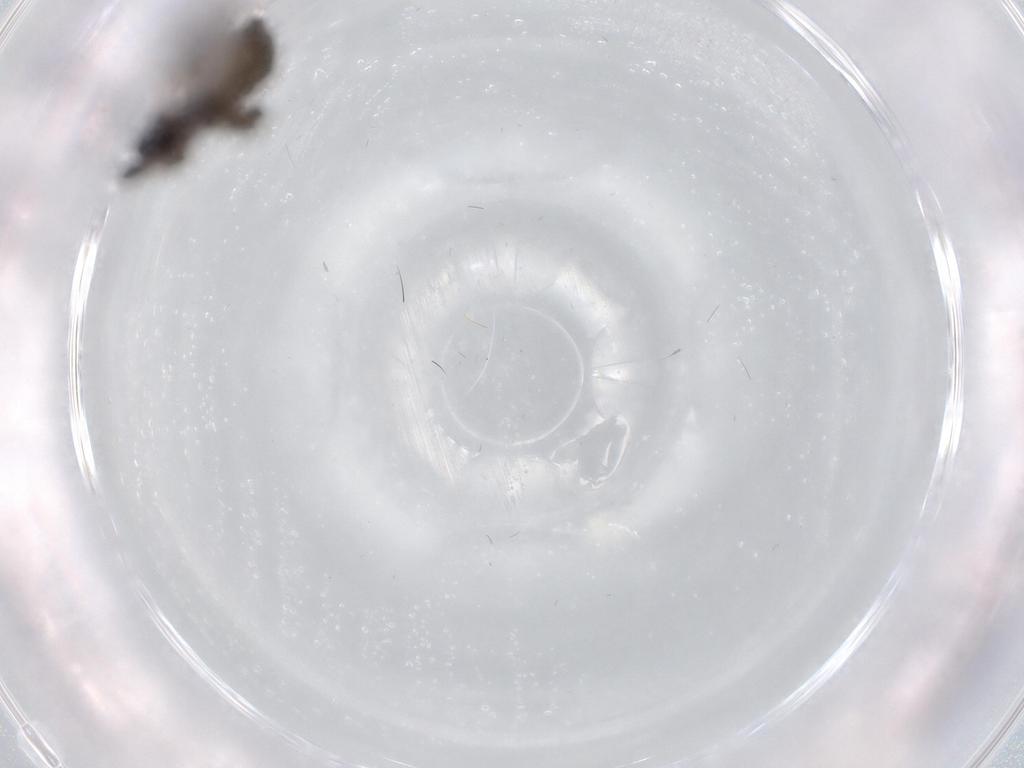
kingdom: Animalia
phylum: Arthropoda
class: Insecta
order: Diptera
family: Sciaridae
